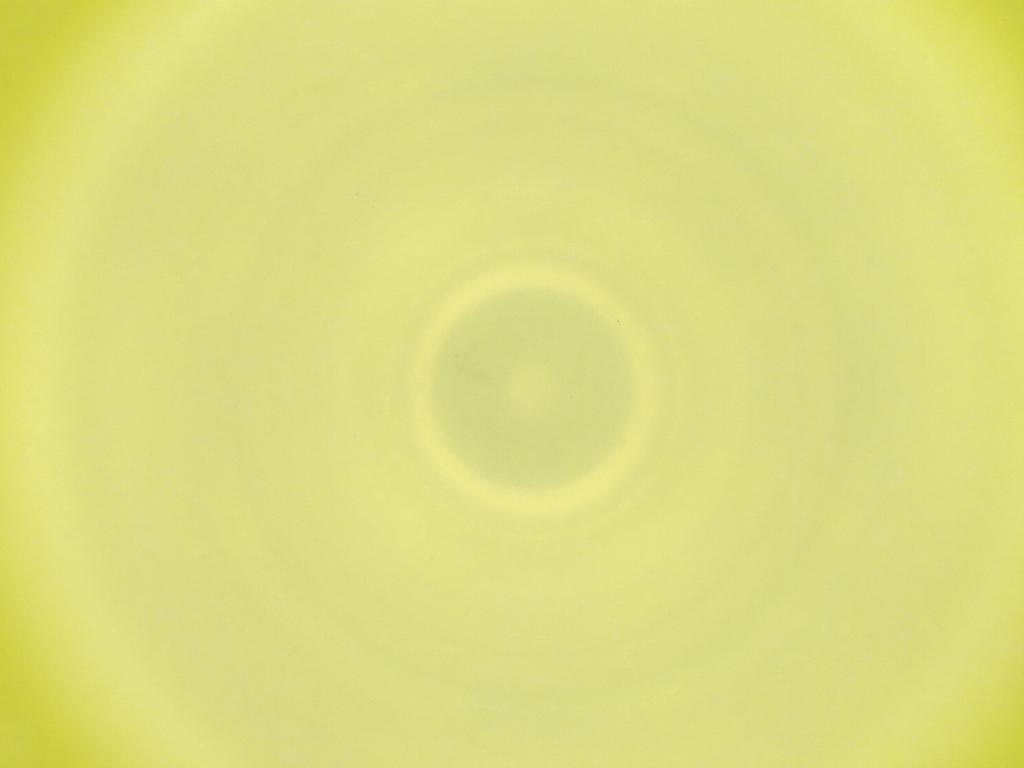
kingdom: Animalia
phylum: Arthropoda
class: Insecta
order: Diptera
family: Cecidomyiidae
